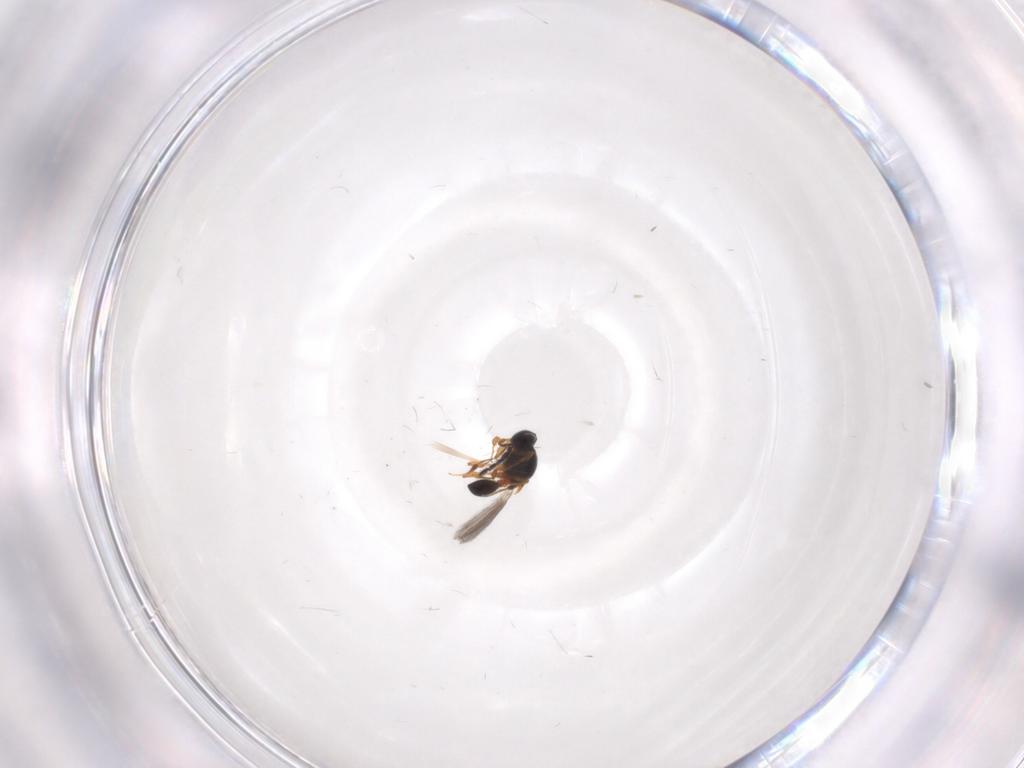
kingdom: Animalia
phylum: Arthropoda
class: Insecta
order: Hymenoptera
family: Platygastridae
